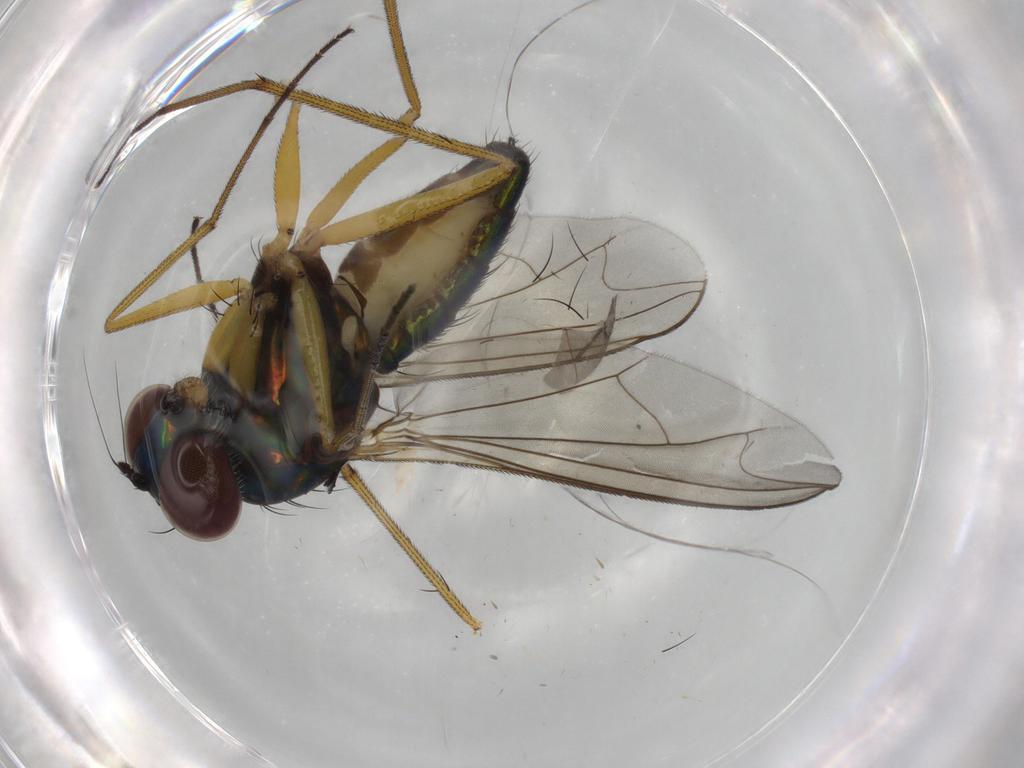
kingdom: Animalia
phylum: Arthropoda
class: Insecta
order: Diptera
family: Dolichopodidae
